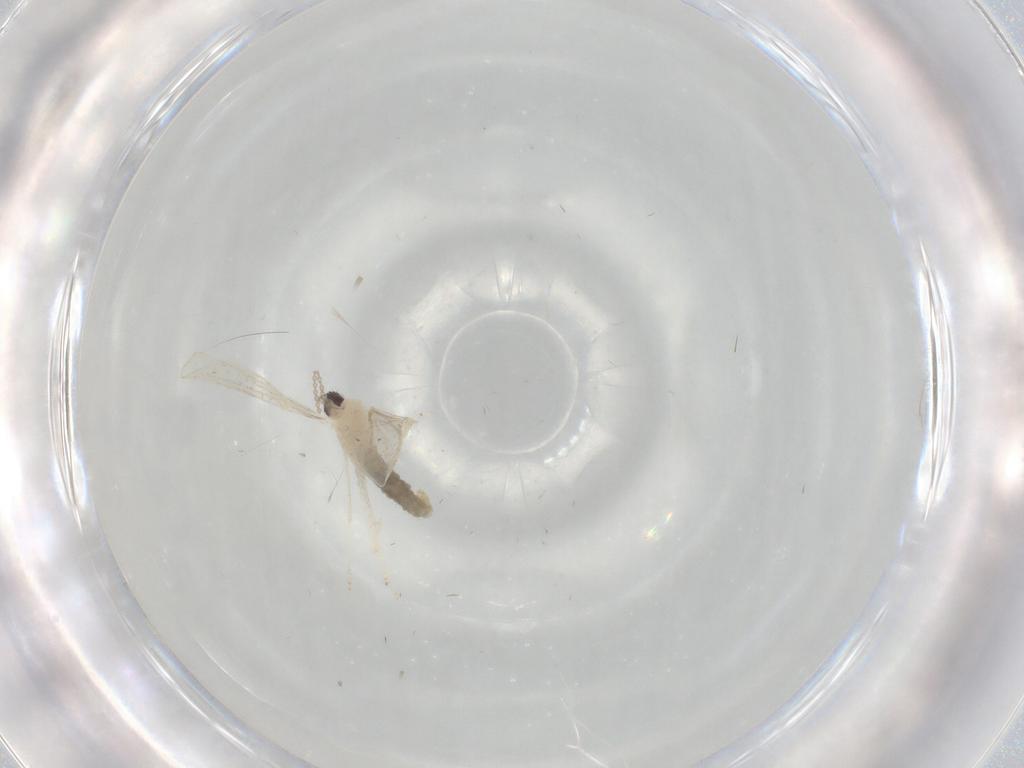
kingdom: Animalia
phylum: Arthropoda
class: Insecta
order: Diptera
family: Cecidomyiidae
